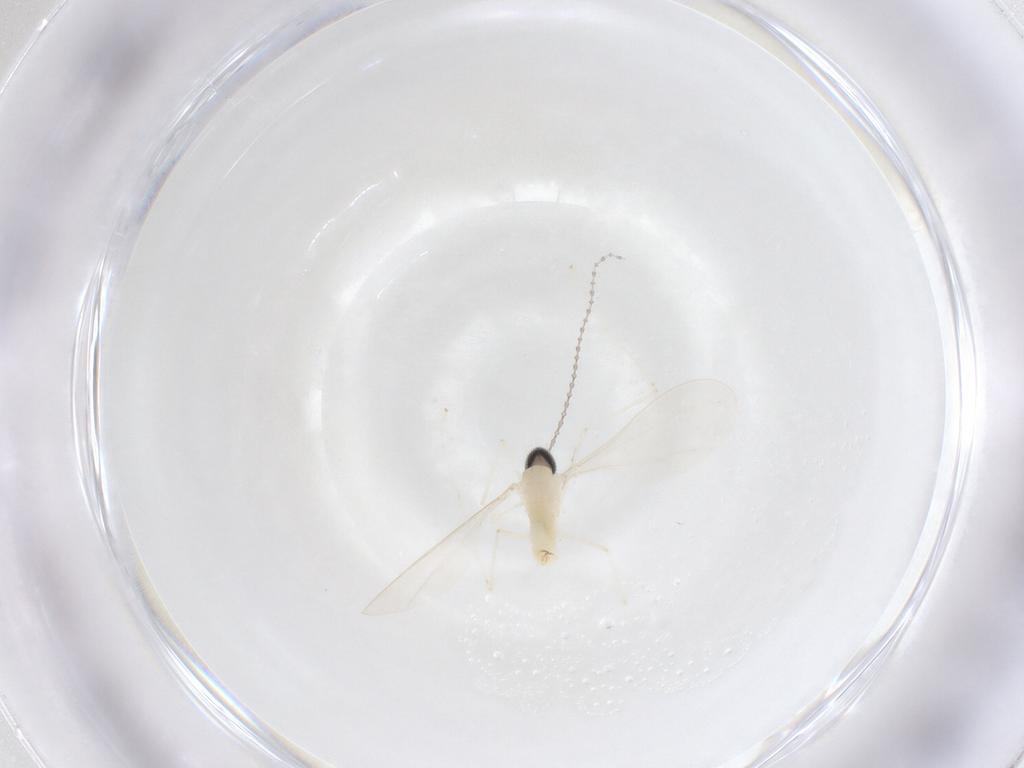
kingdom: Animalia
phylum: Arthropoda
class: Insecta
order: Diptera
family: Cecidomyiidae
